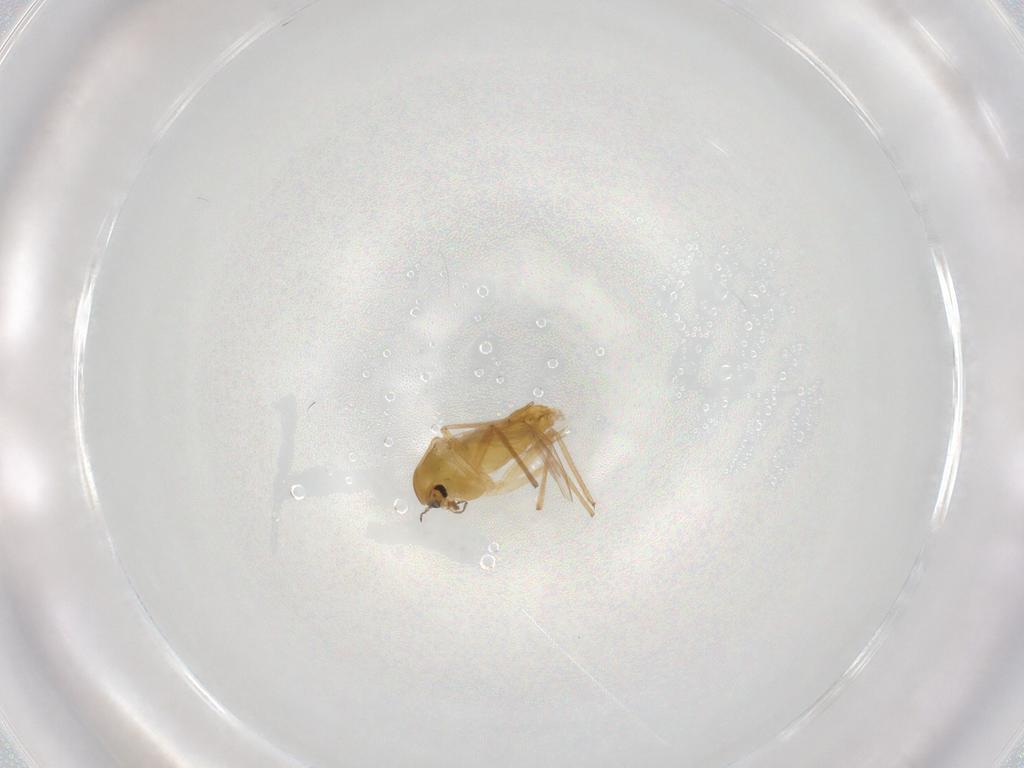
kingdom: Animalia
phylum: Arthropoda
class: Insecta
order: Diptera
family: Chironomidae
